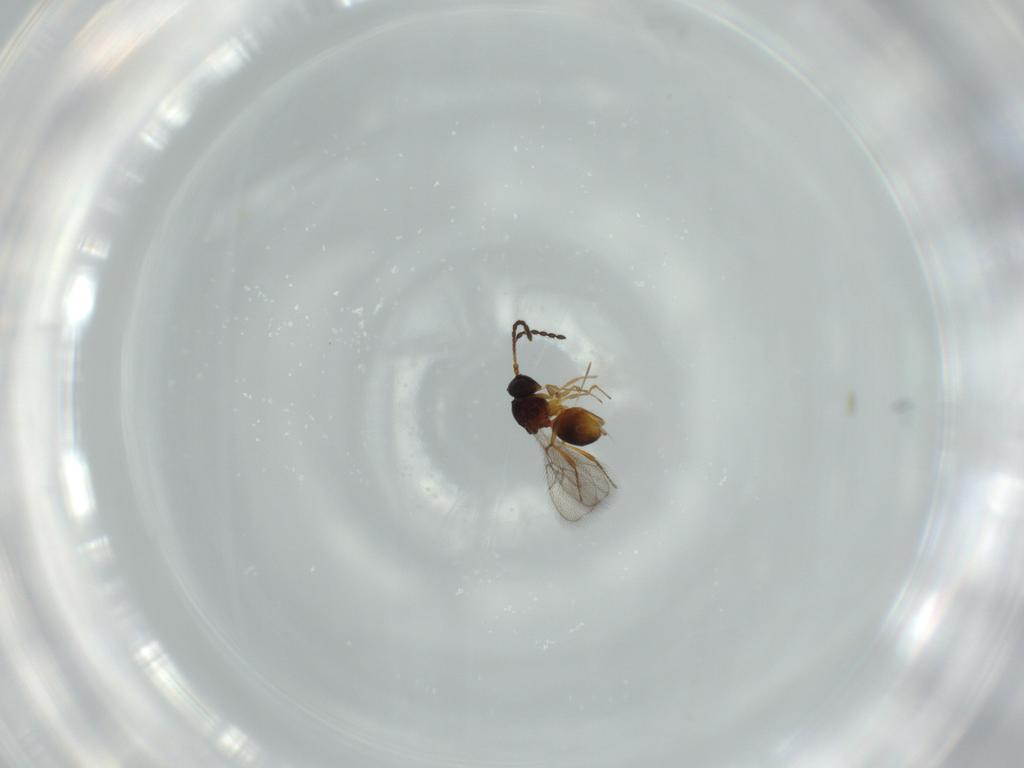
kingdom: Animalia
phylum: Arthropoda
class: Insecta
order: Hymenoptera
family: Figitidae
